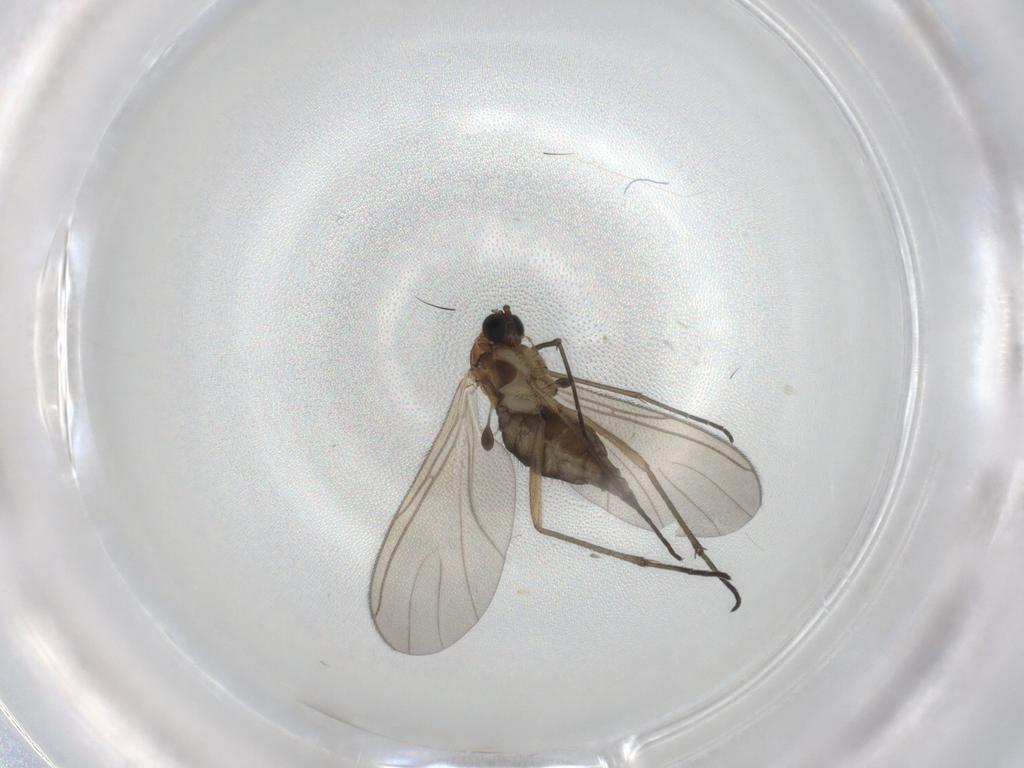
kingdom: Animalia
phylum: Arthropoda
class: Insecta
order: Diptera
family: Sciaridae
